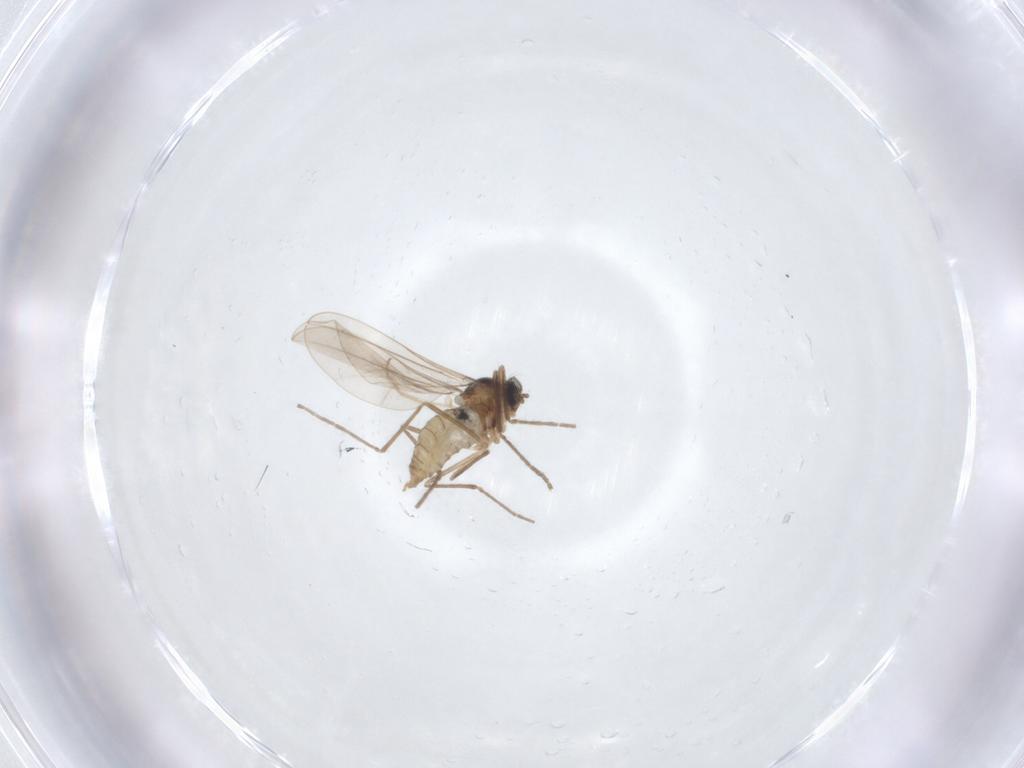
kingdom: Animalia
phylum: Arthropoda
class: Insecta
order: Diptera
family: Cecidomyiidae
